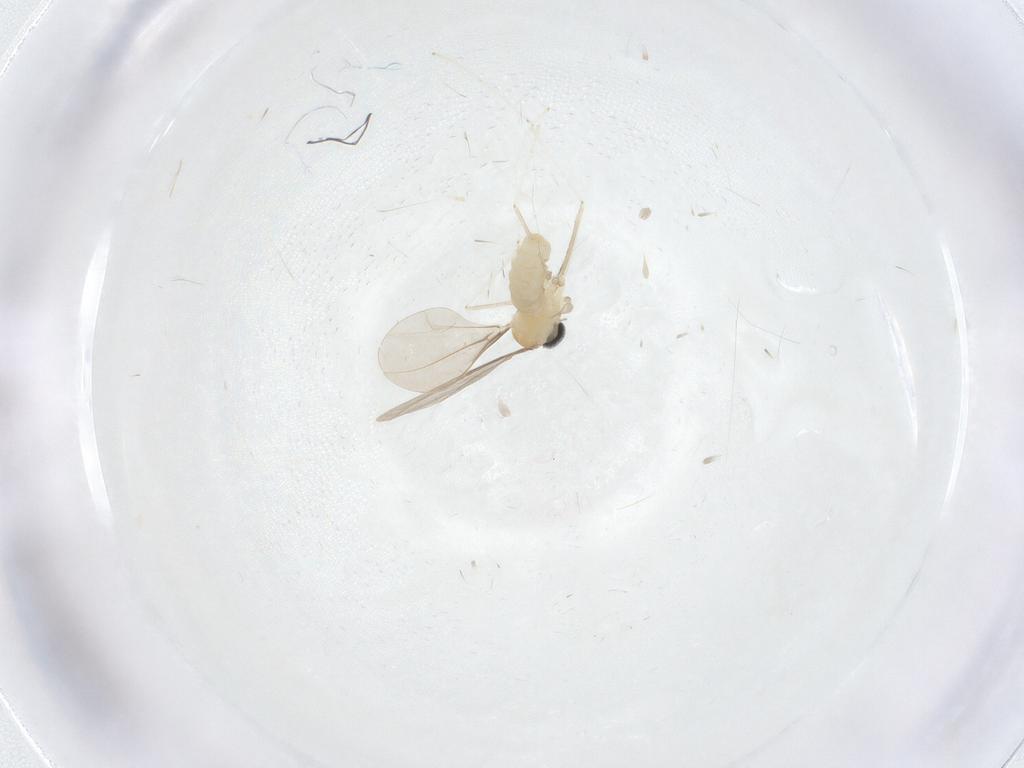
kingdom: Animalia
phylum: Arthropoda
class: Insecta
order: Diptera
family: Cecidomyiidae
